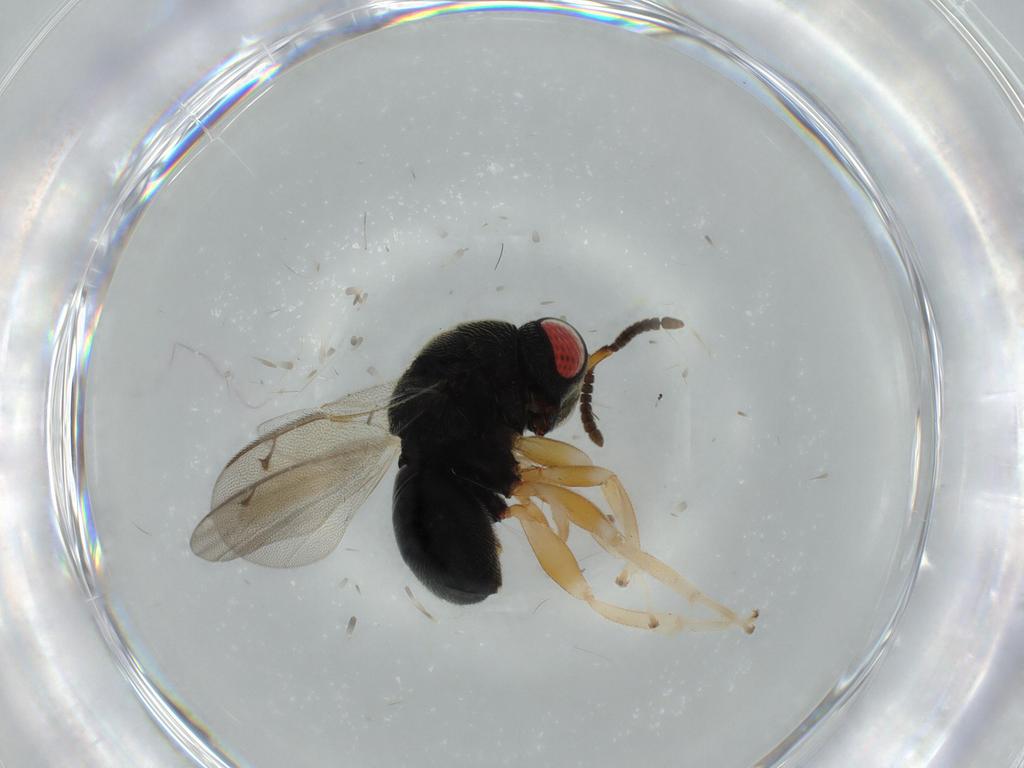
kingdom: Animalia
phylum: Arthropoda
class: Insecta
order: Hymenoptera
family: Eurytomidae
